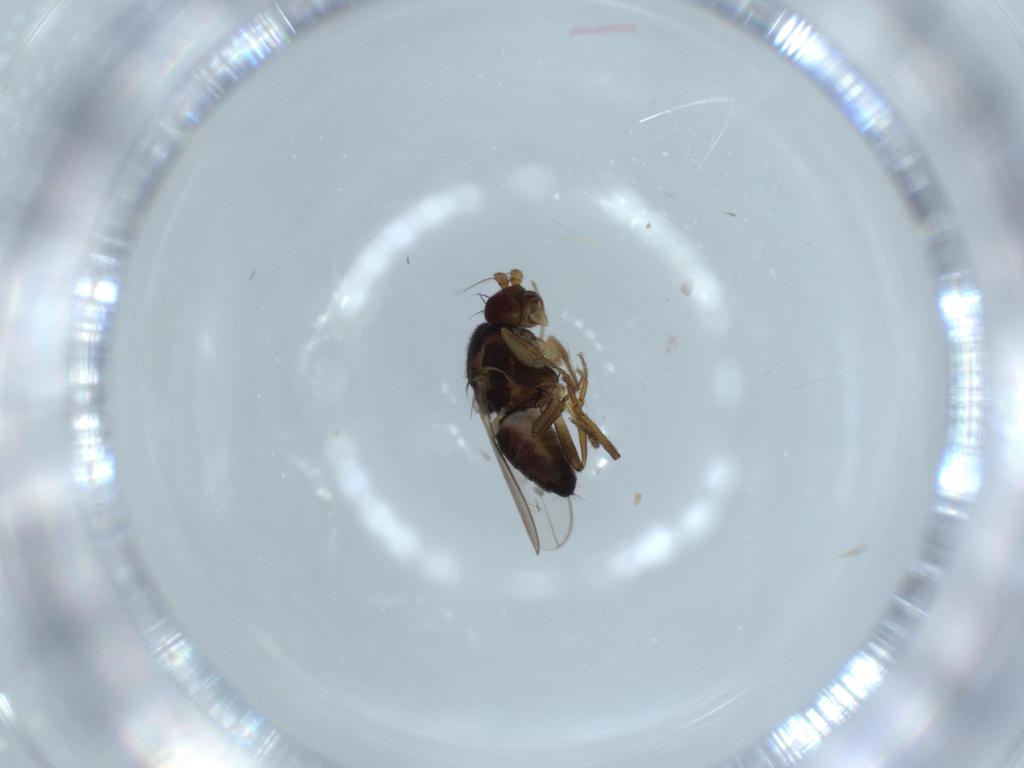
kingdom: Animalia
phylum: Arthropoda
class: Insecta
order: Diptera
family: Sphaeroceridae
